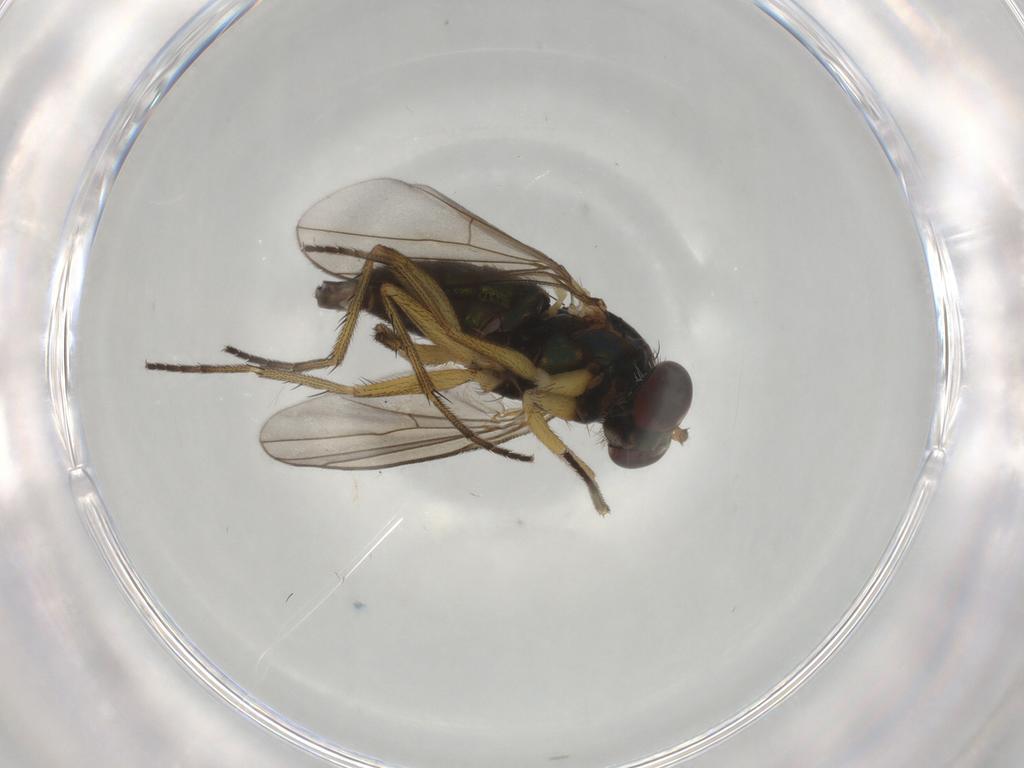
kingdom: Animalia
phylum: Arthropoda
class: Insecta
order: Diptera
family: Dolichopodidae
